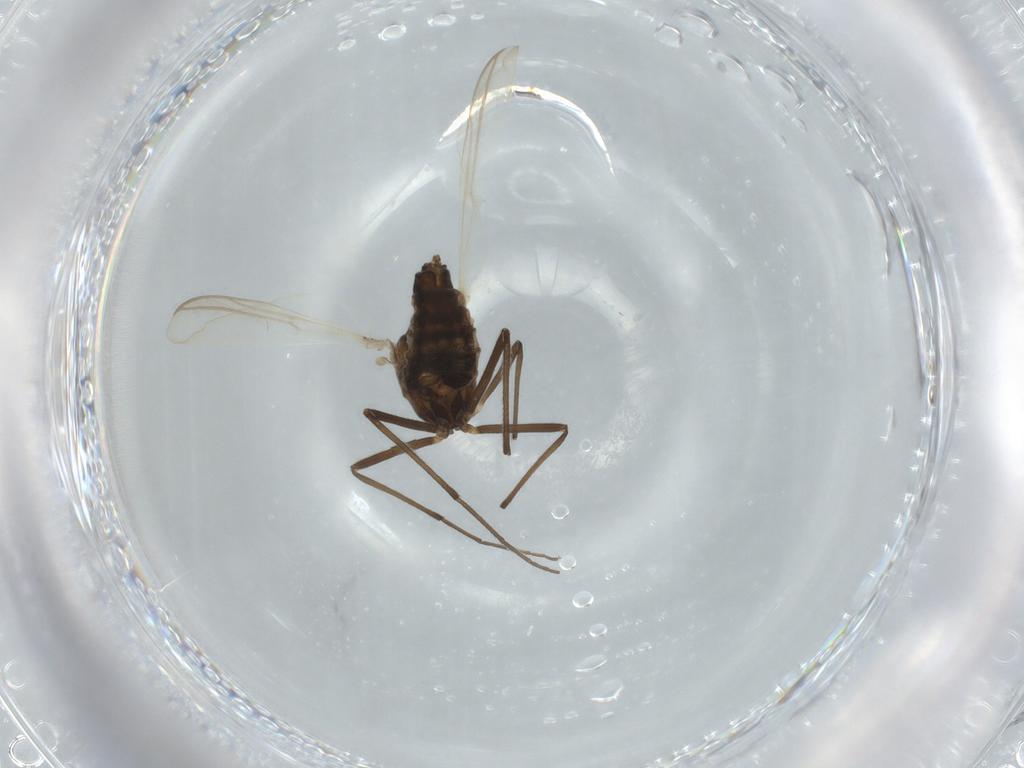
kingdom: Animalia
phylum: Arthropoda
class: Insecta
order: Diptera
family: Chironomidae
